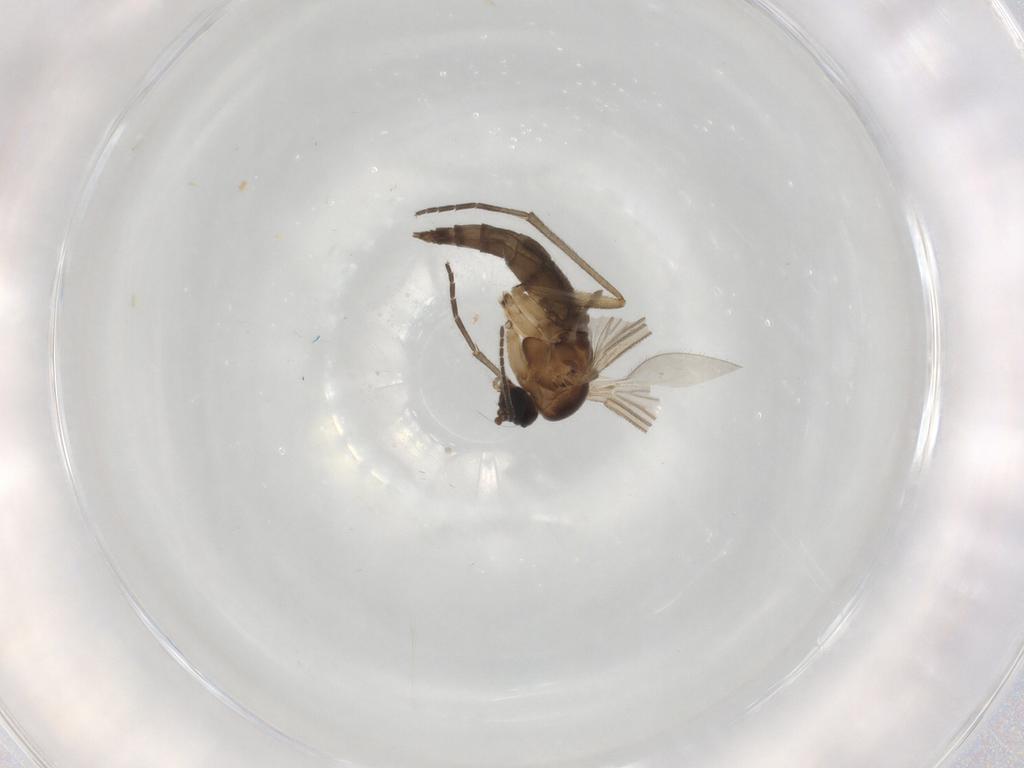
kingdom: Animalia
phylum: Arthropoda
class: Insecta
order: Diptera
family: Sciaridae
